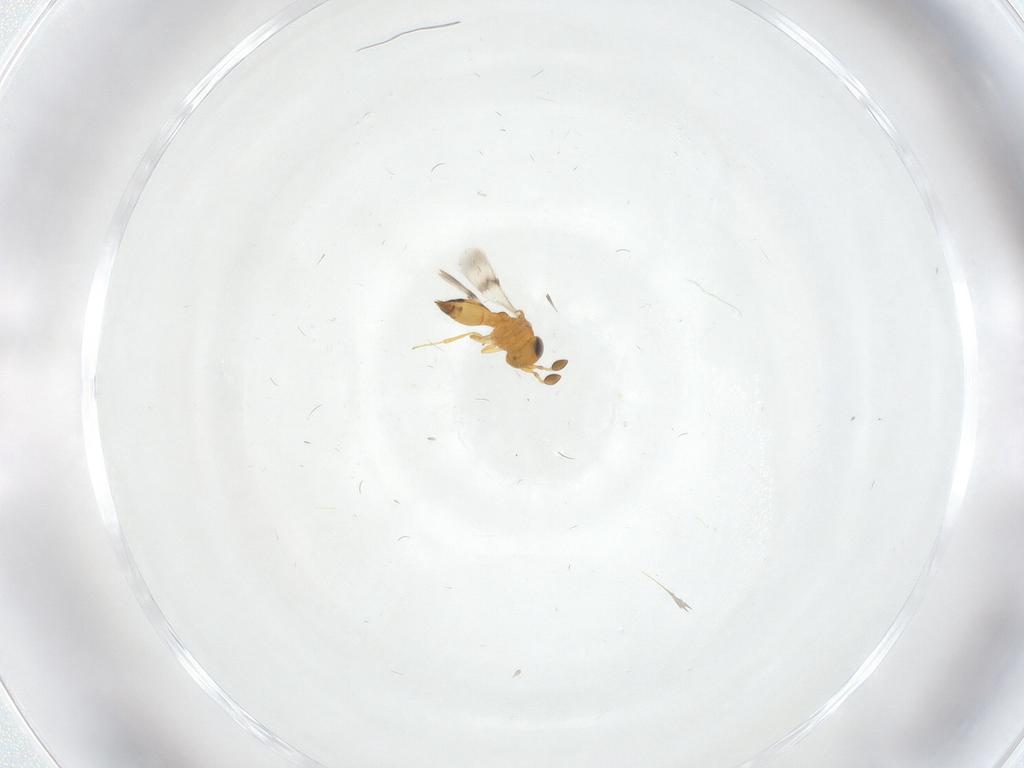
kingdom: Animalia
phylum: Arthropoda
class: Insecta
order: Hymenoptera
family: Scelionidae
